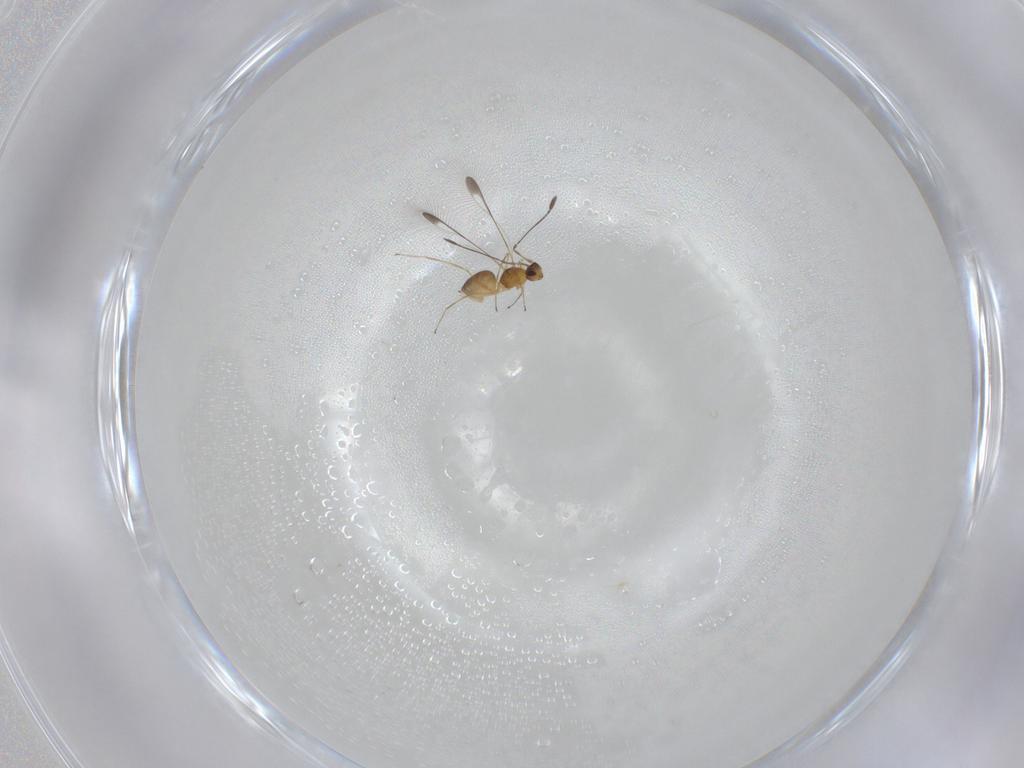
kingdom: Animalia
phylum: Arthropoda
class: Insecta
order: Hymenoptera
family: Mymaridae
